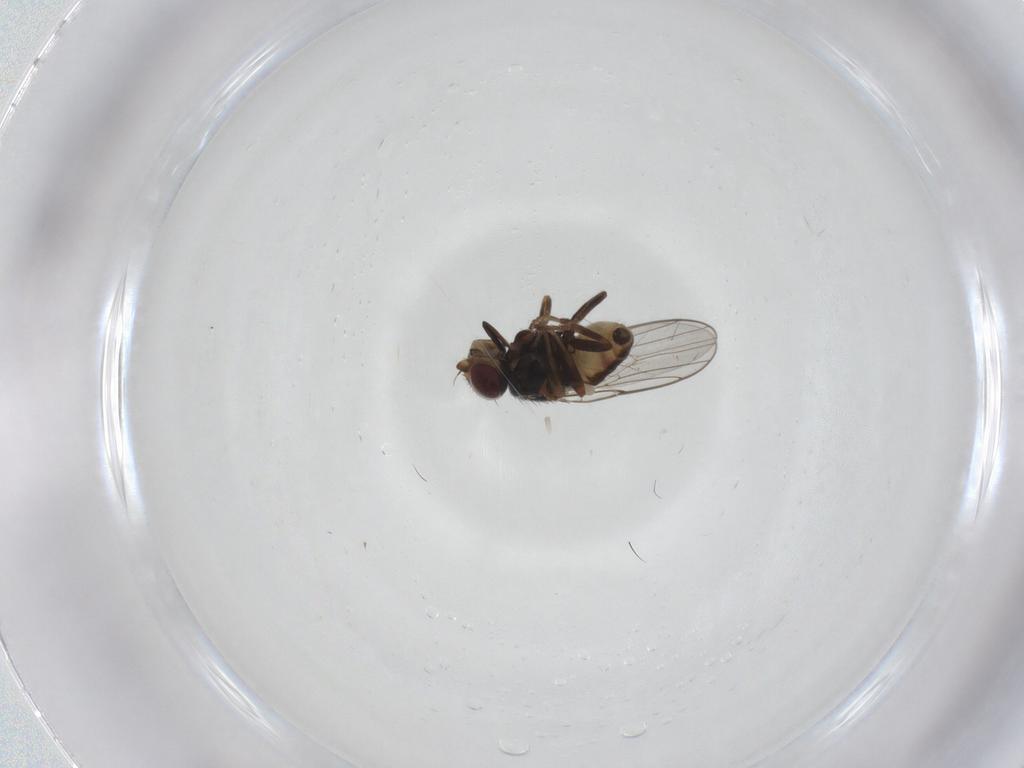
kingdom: Animalia
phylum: Arthropoda
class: Insecta
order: Diptera
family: Chloropidae
